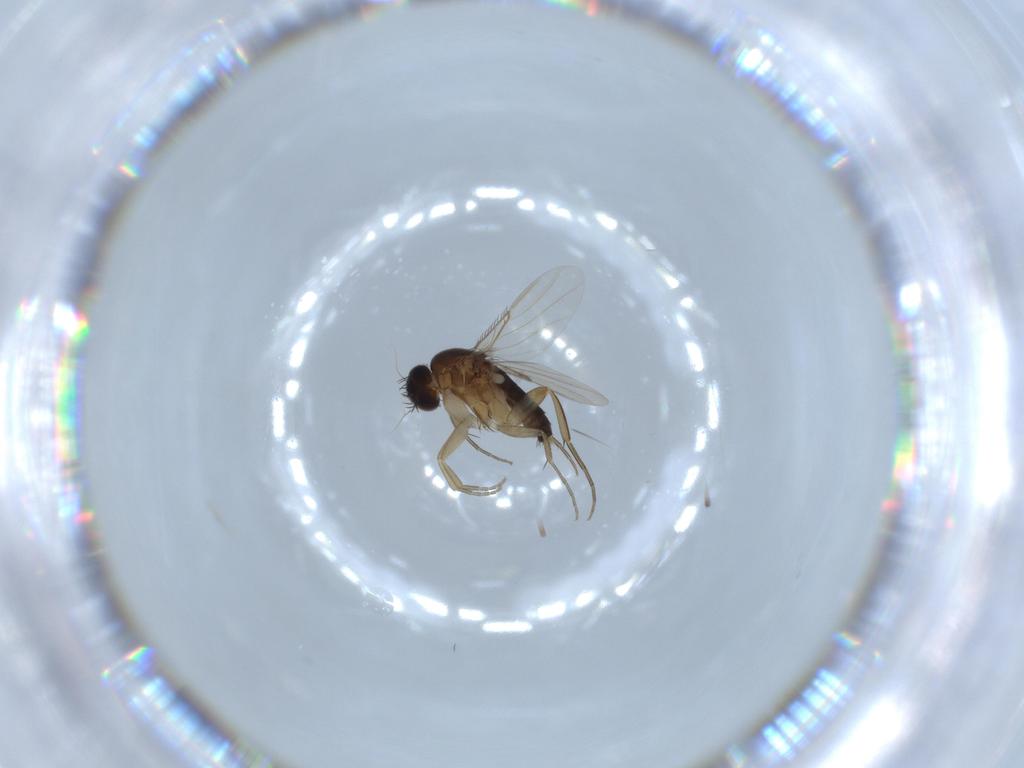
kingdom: Animalia
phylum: Arthropoda
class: Insecta
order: Diptera
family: Phoridae
